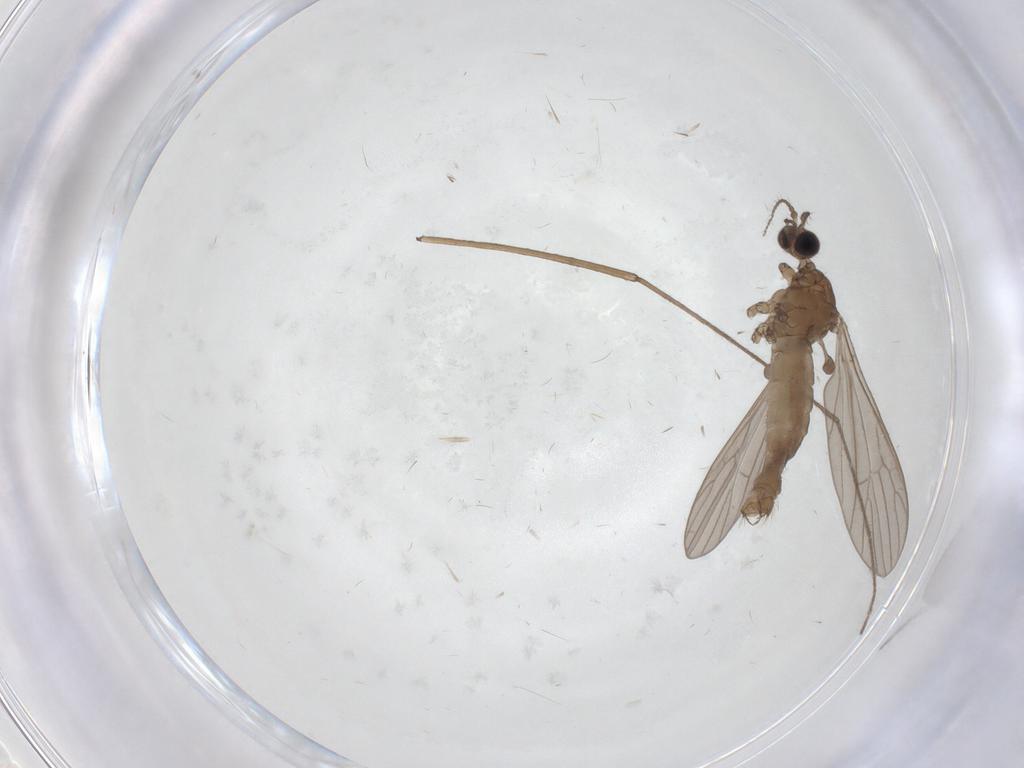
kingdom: Animalia
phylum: Arthropoda
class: Insecta
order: Diptera
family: Limoniidae
